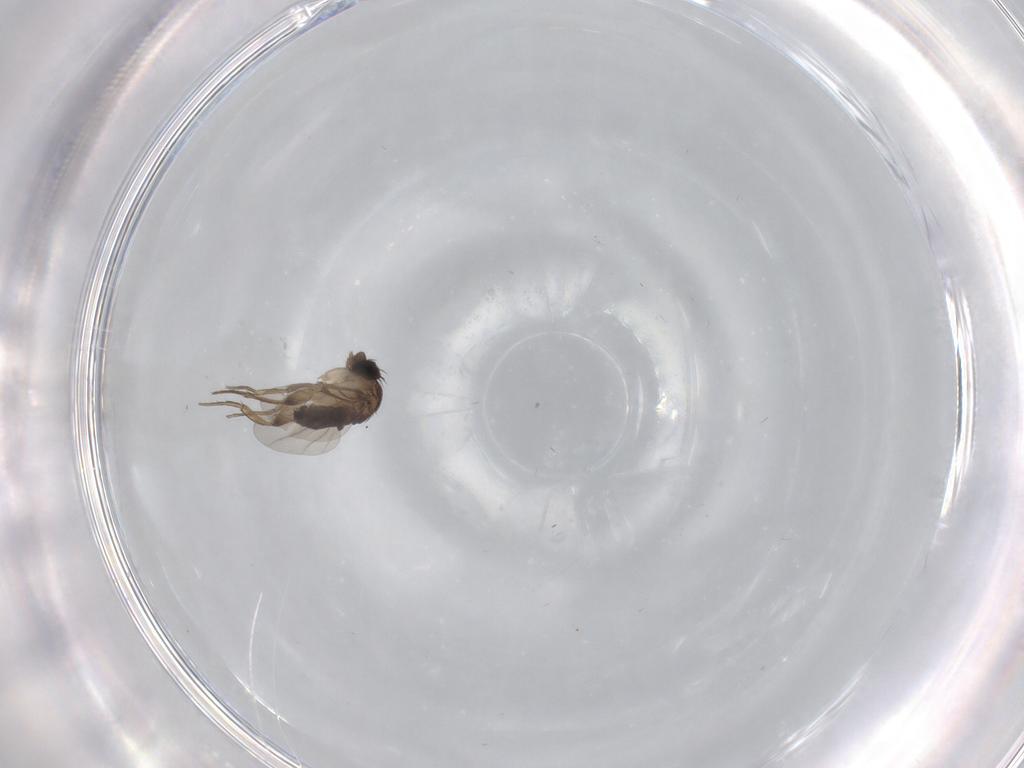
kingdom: Animalia
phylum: Arthropoda
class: Insecta
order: Diptera
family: Phoridae
